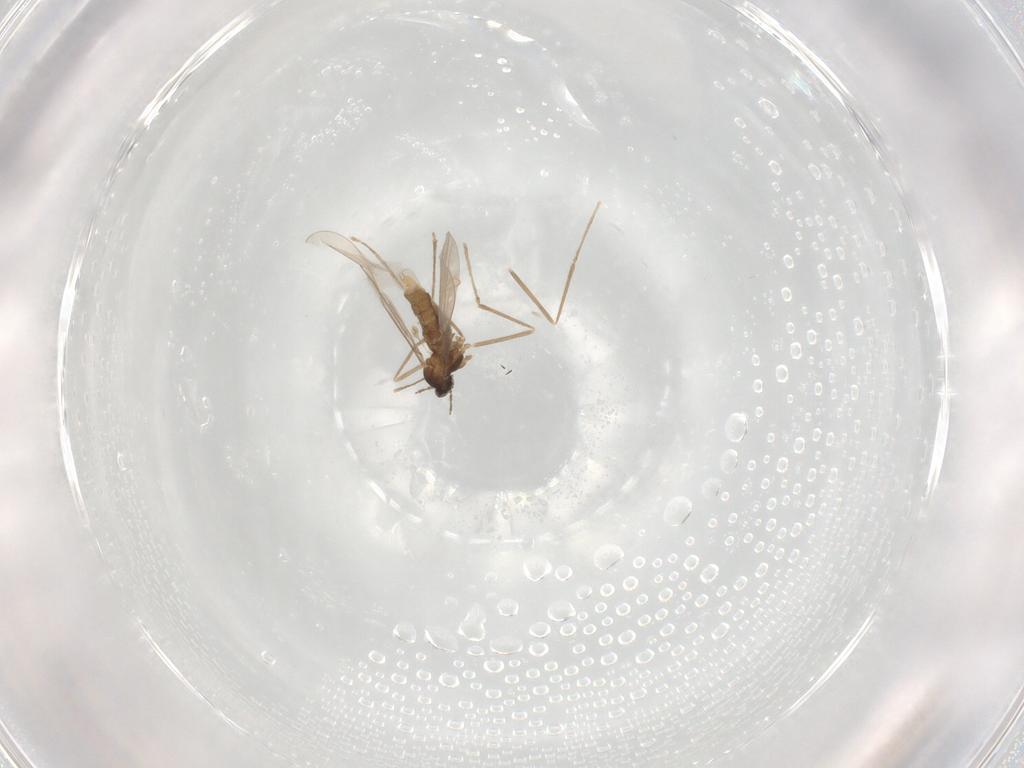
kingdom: Animalia
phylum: Arthropoda
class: Insecta
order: Diptera
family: Cecidomyiidae
